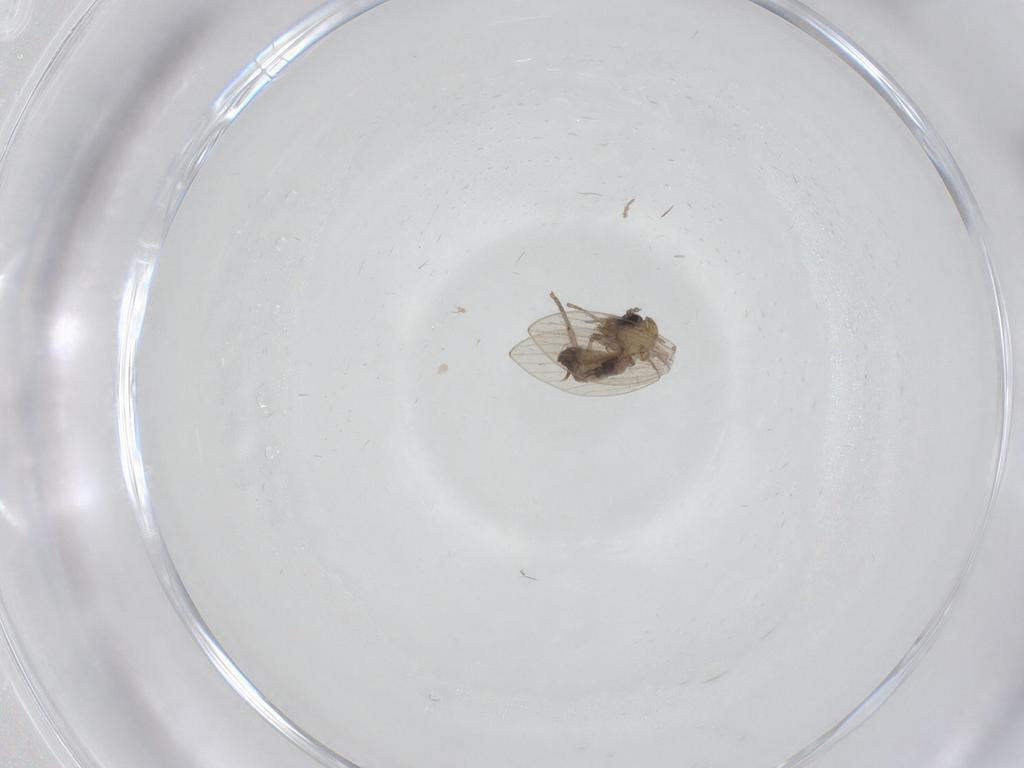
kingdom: Animalia
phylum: Arthropoda
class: Insecta
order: Diptera
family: Psychodidae
